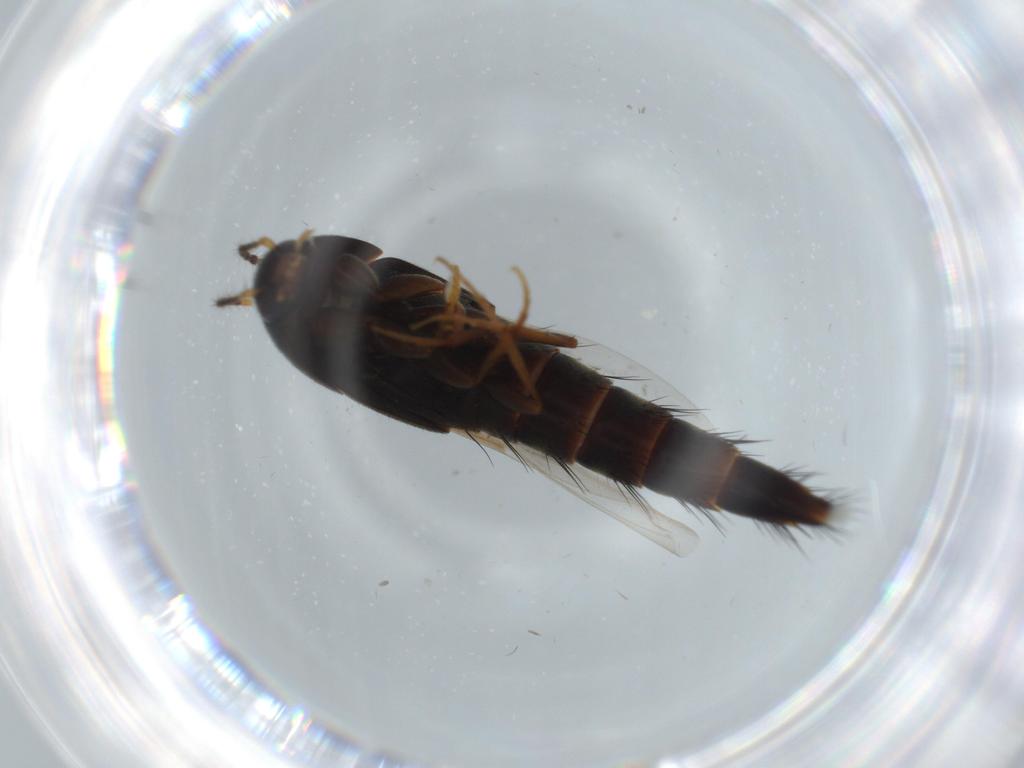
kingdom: Animalia
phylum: Arthropoda
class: Insecta
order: Coleoptera
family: Staphylinidae
